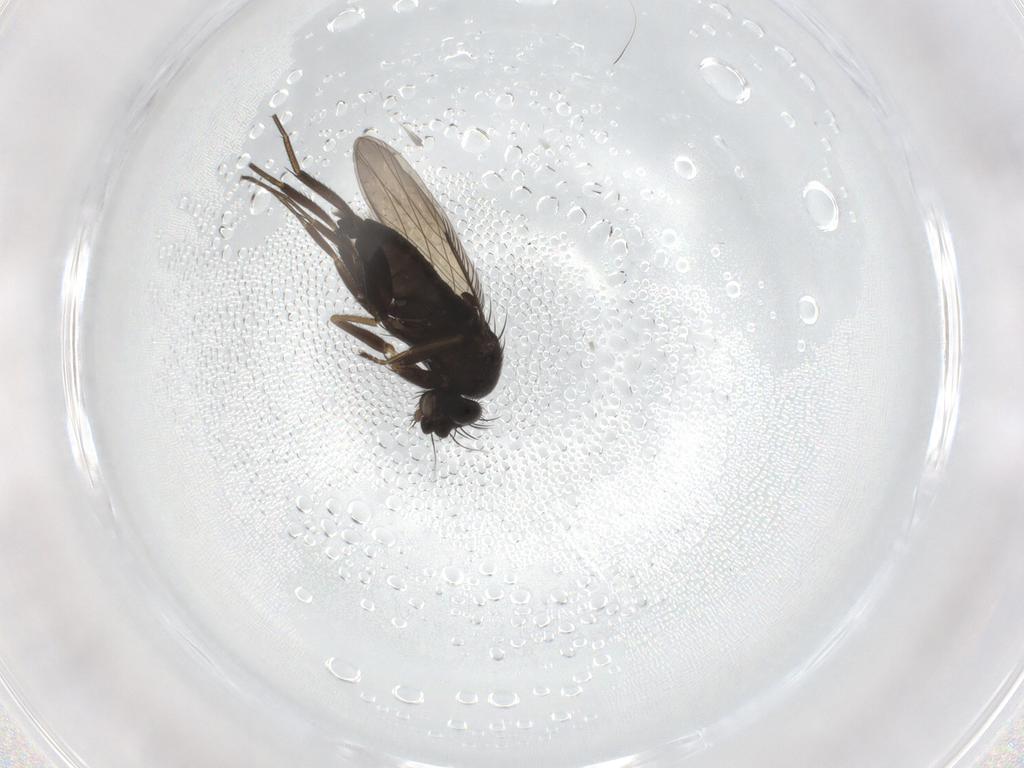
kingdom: Animalia
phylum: Arthropoda
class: Insecta
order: Diptera
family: Phoridae
